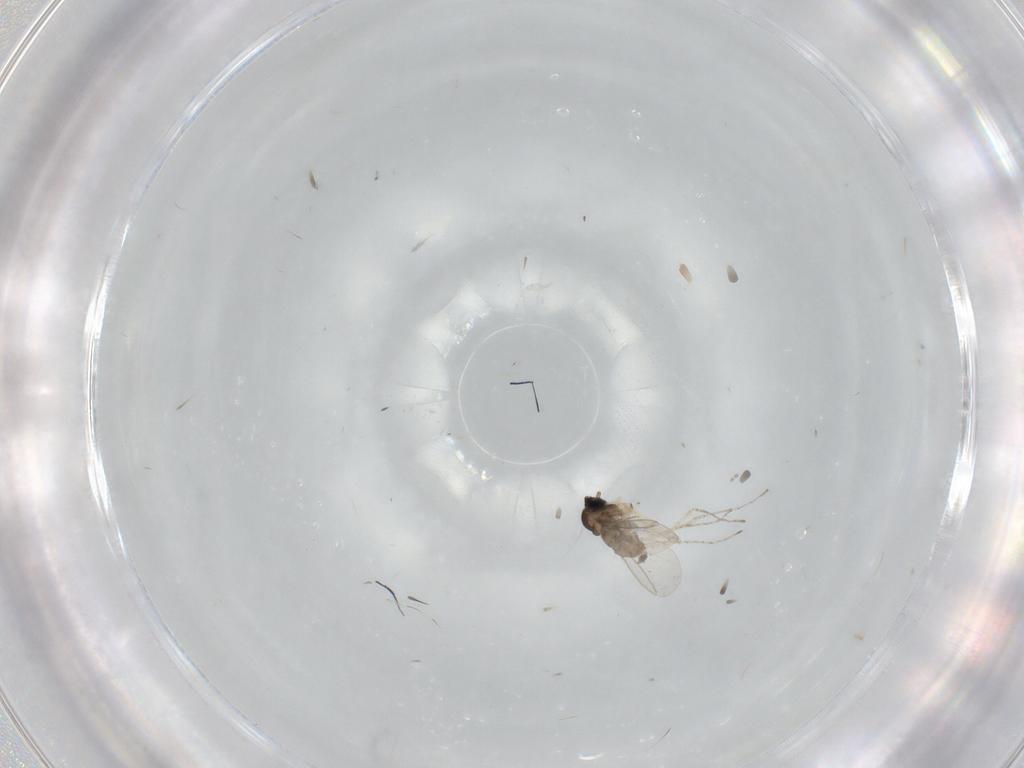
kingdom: Animalia
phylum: Arthropoda
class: Insecta
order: Diptera
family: Cecidomyiidae
